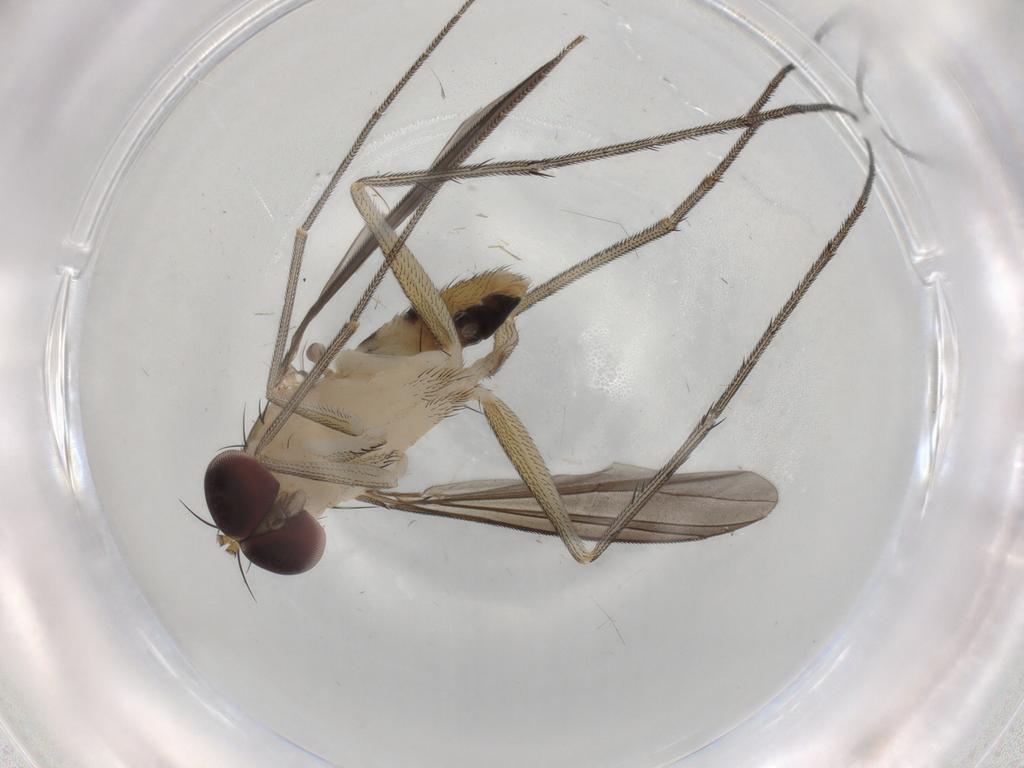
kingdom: Animalia
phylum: Arthropoda
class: Insecta
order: Diptera
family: Dolichopodidae
